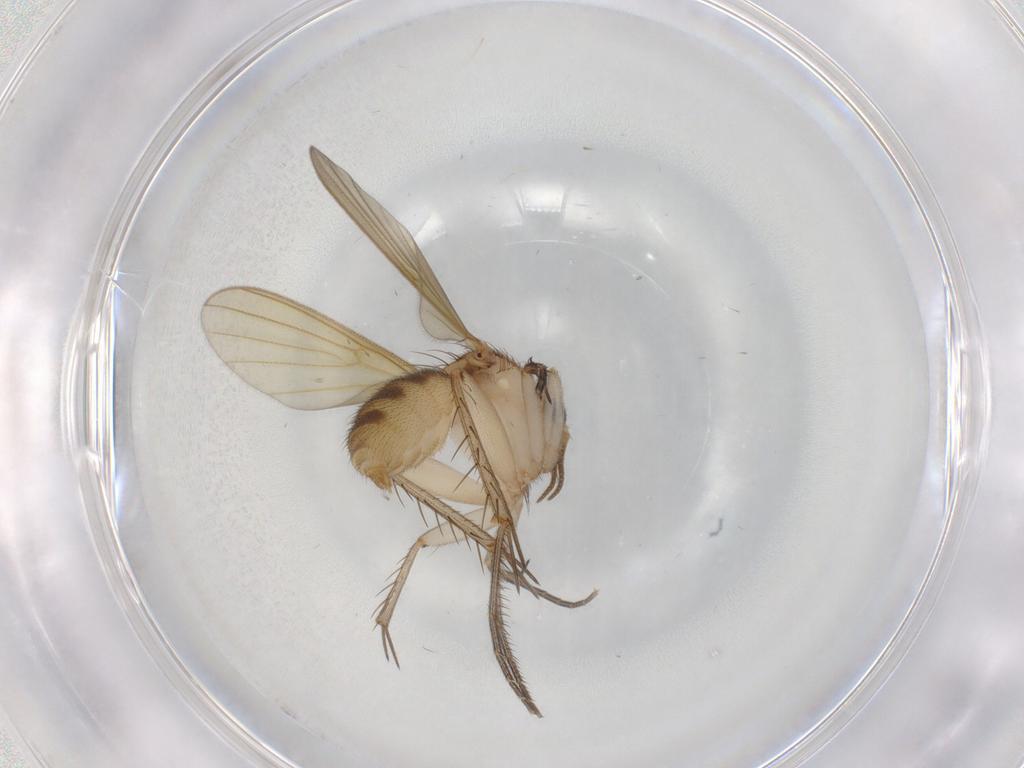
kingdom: Animalia
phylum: Arthropoda
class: Insecta
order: Diptera
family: Mycetophilidae
